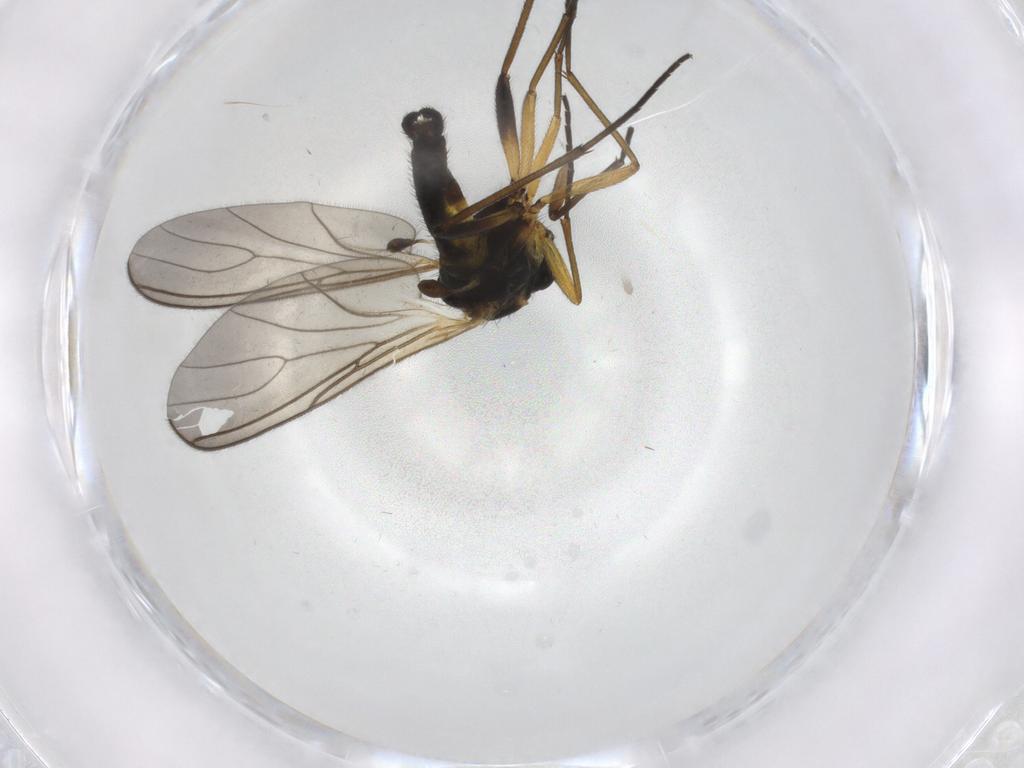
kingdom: Animalia
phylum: Arthropoda
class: Insecta
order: Diptera
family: Sciaridae
